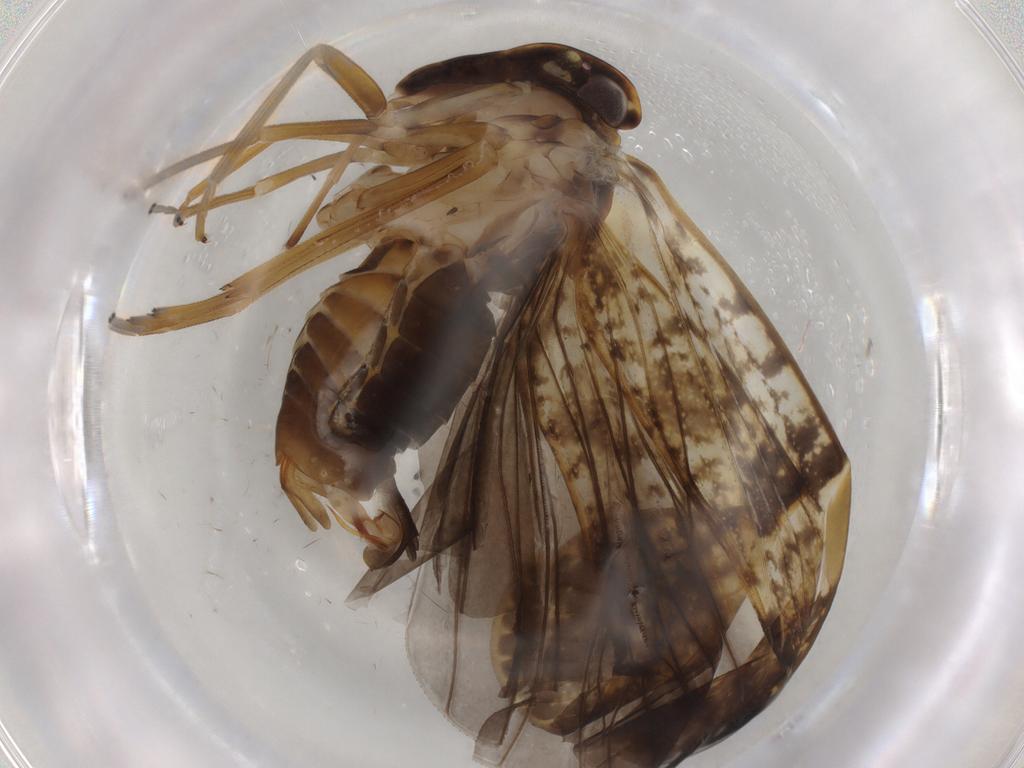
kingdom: Animalia
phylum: Arthropoda
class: Insecta
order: Hemiptera
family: Cixiidae
